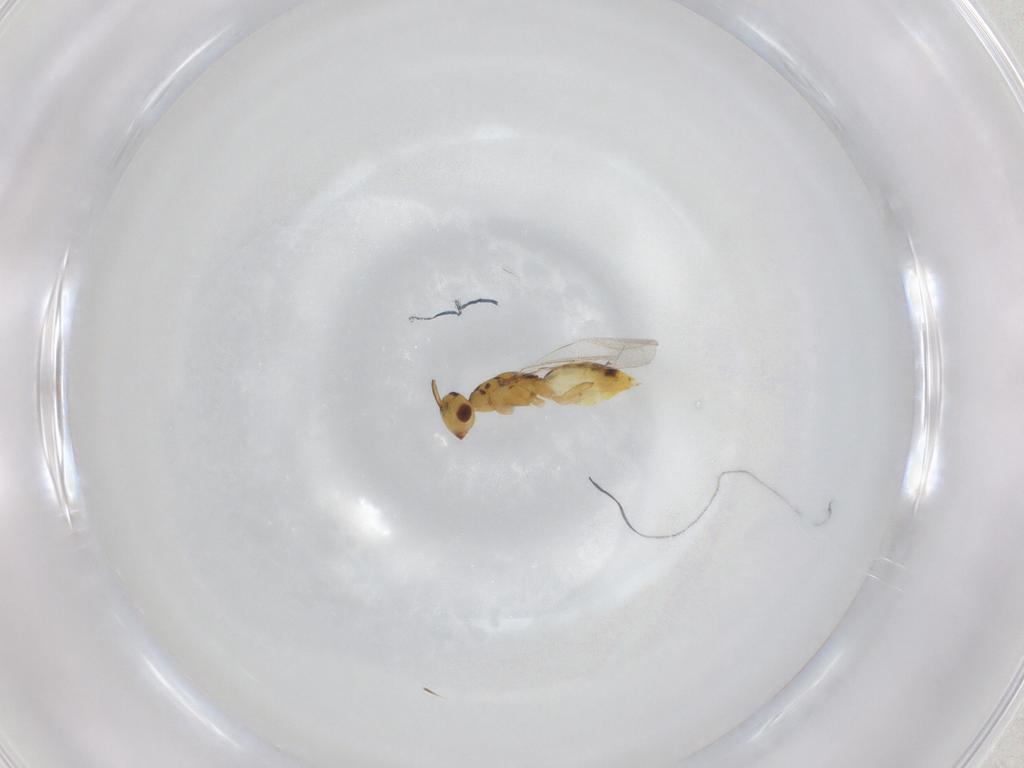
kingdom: Animalia
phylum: Arthropoda
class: Insecta
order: Hymenoptera
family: Eulophidae
